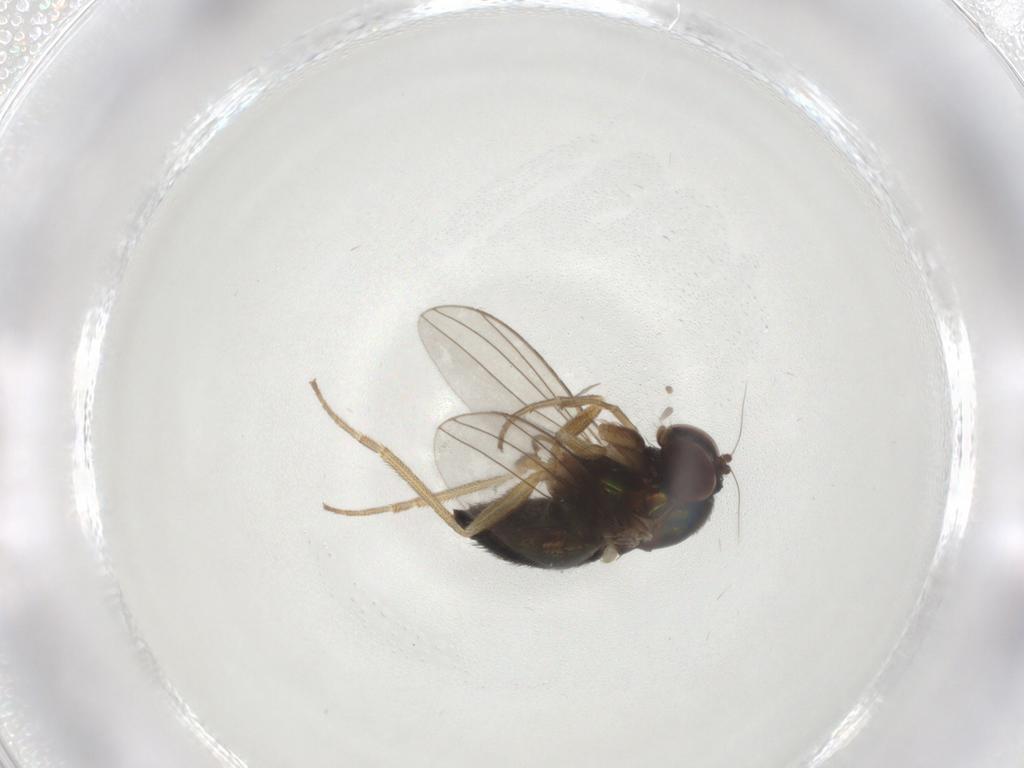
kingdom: Animalia
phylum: Arthropoda
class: Insecta
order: Diptera
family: Dolichopodidae
